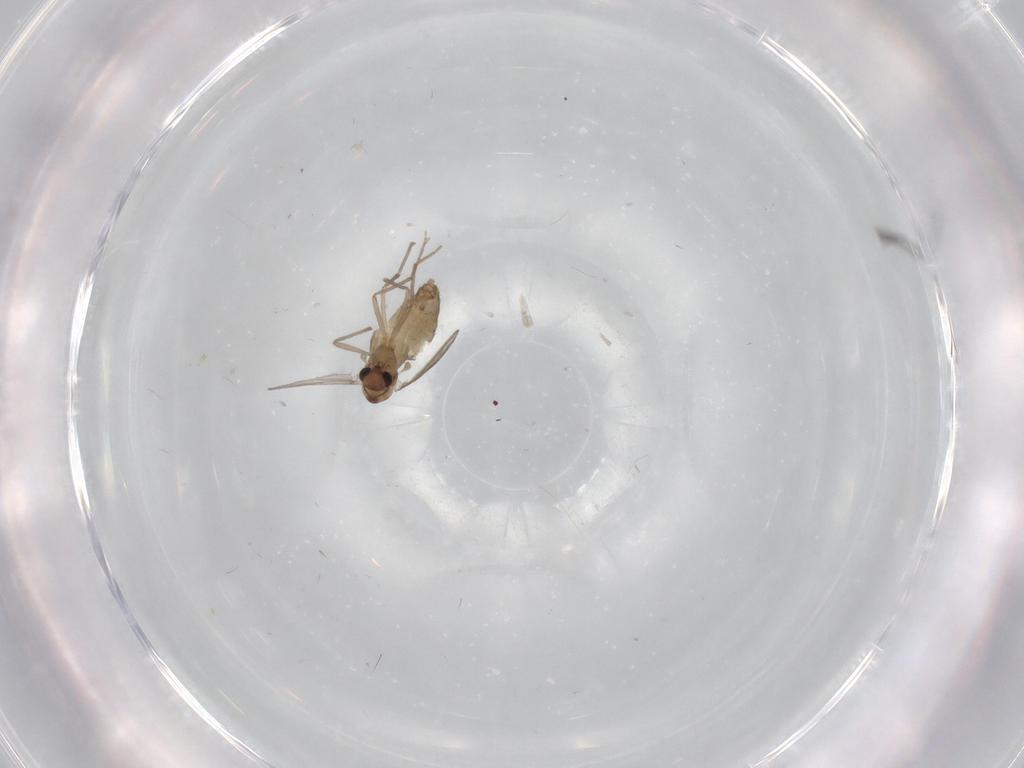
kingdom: Animalia
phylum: Arthropoda
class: Insecta
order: Diptera
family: Chironomidae
